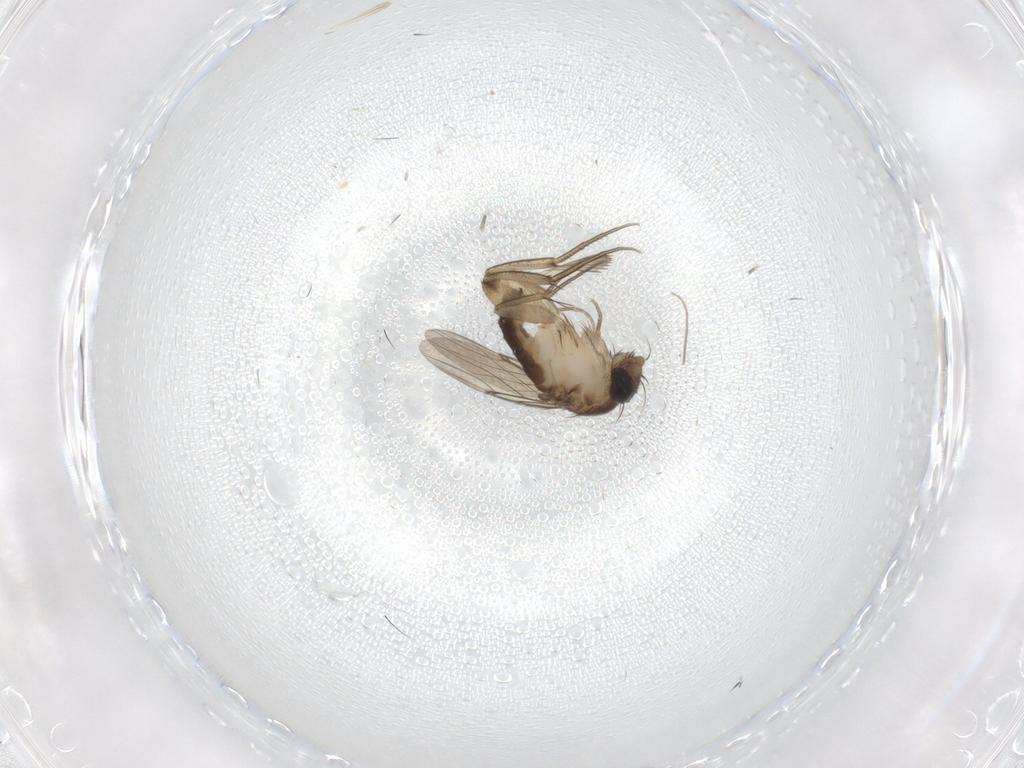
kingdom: Animalia
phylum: Arthropoda
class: Insecta
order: Diptera
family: Phoridae
